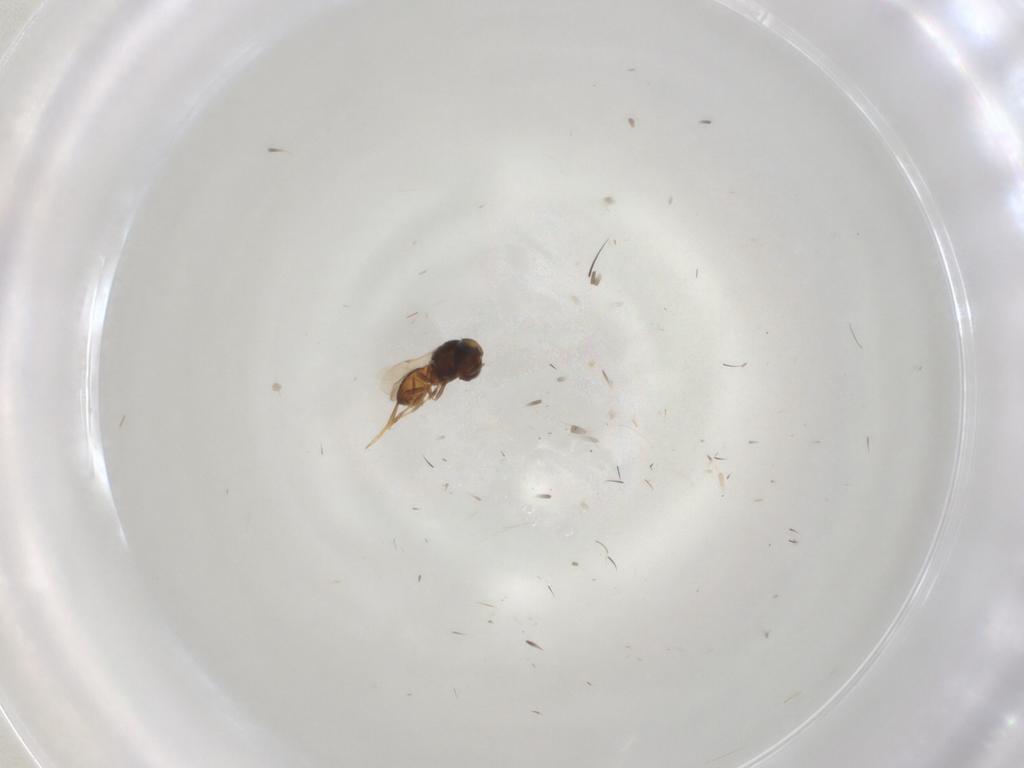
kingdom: Animalia
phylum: Arthropoda
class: Insecta
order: Hymenoptera
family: Scelionidae
